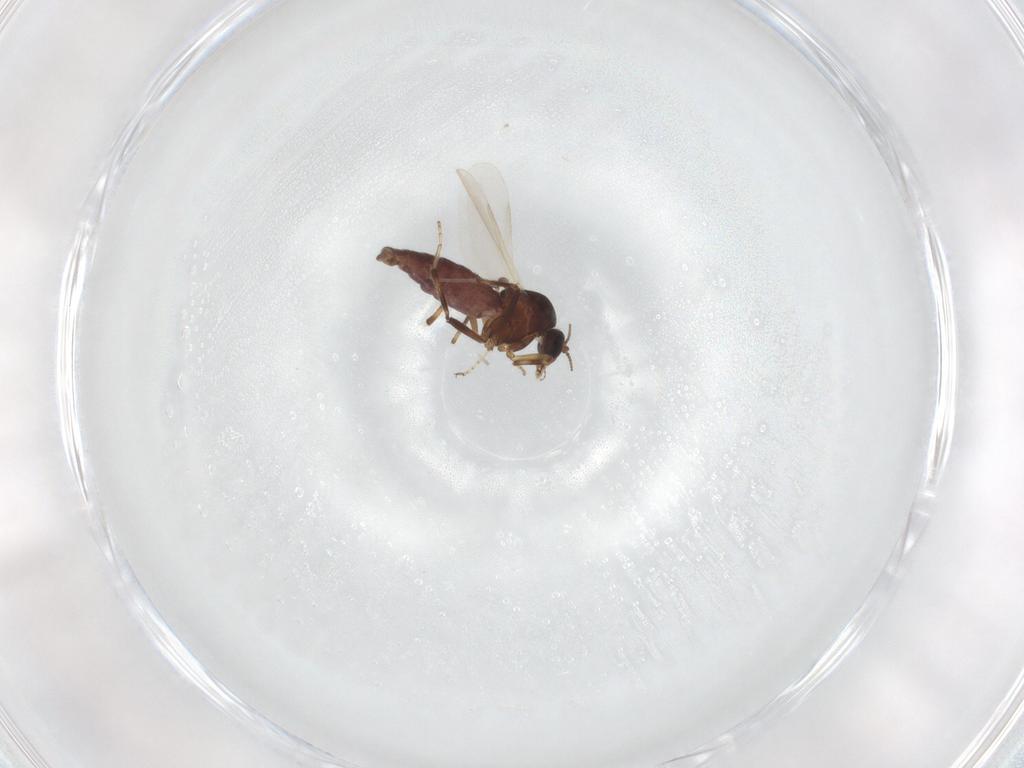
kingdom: Animalia
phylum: Arthropoda
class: Insecta
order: Diptera
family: Ceratopogonidae
